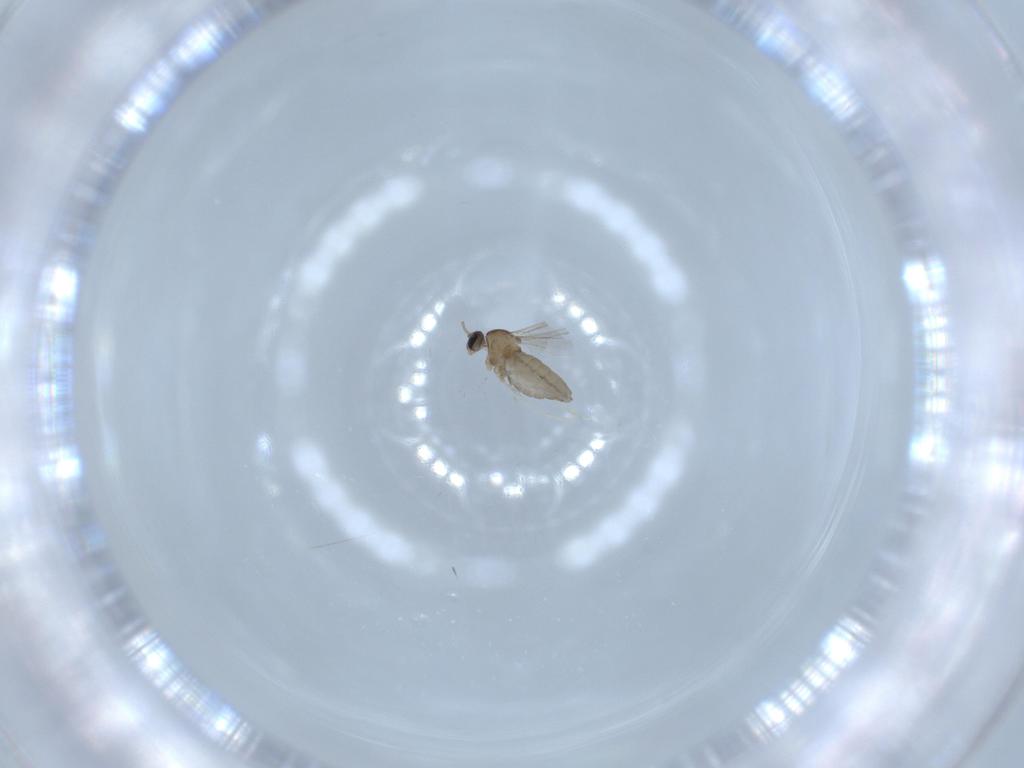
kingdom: Animalia
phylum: Arthropoda
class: Insecta
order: Diptera
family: Cecidomyiidae
